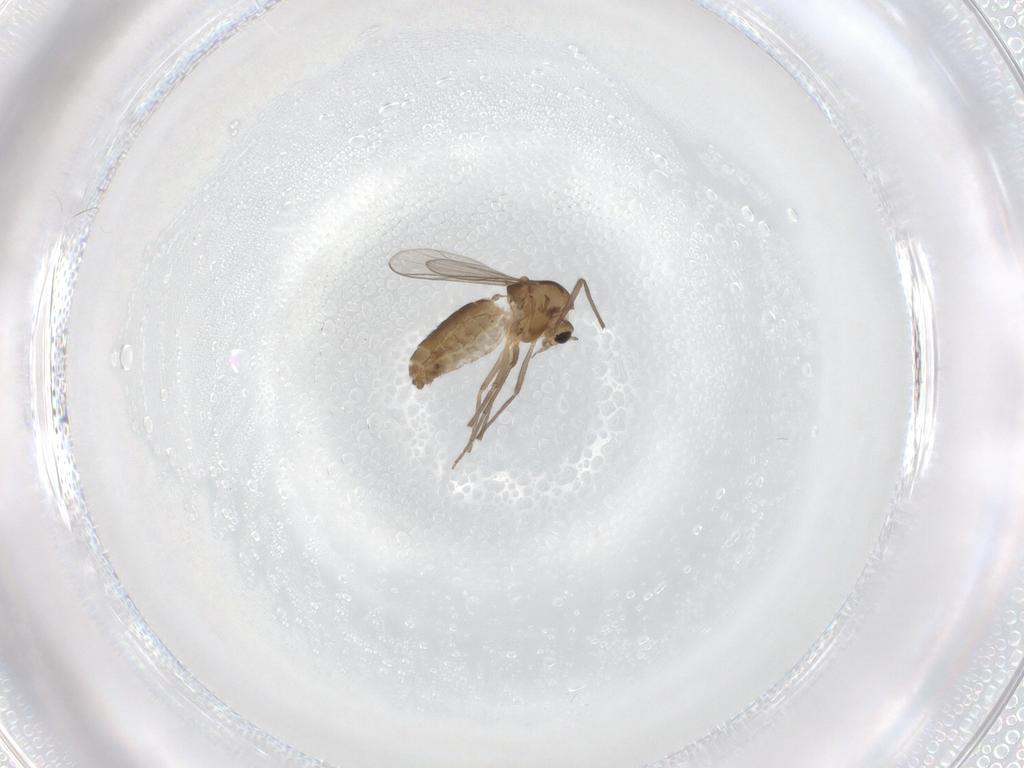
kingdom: Animalia
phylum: Arthropoda
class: Insecta
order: Diptera
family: Chironomidae
